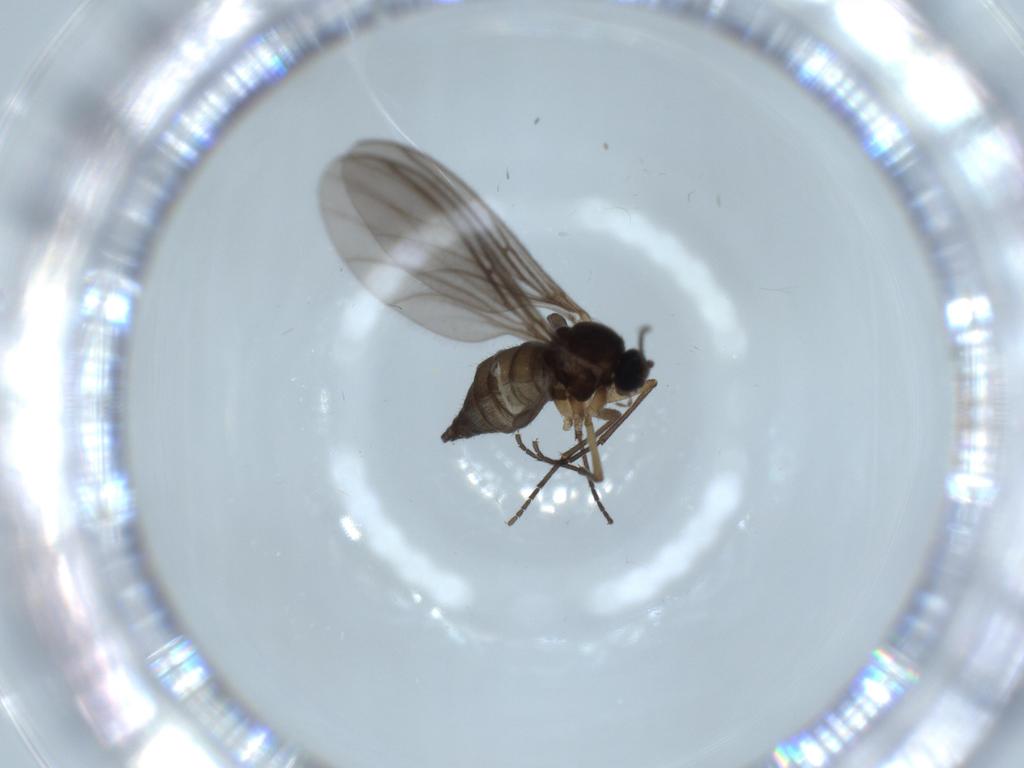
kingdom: Animalia
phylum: Arthropoda
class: Insecta
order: Diptera
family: Sciaridae
